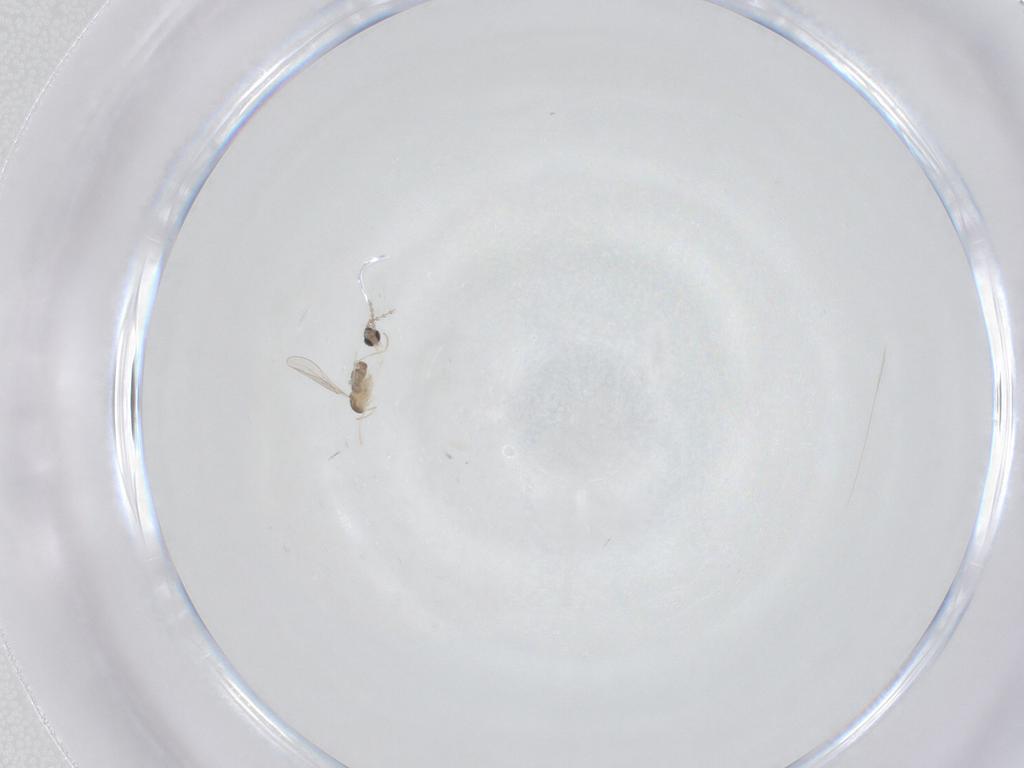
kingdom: Animalia
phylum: Arthropoda
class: Insecta
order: Diptera
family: Cecidomyiidae
